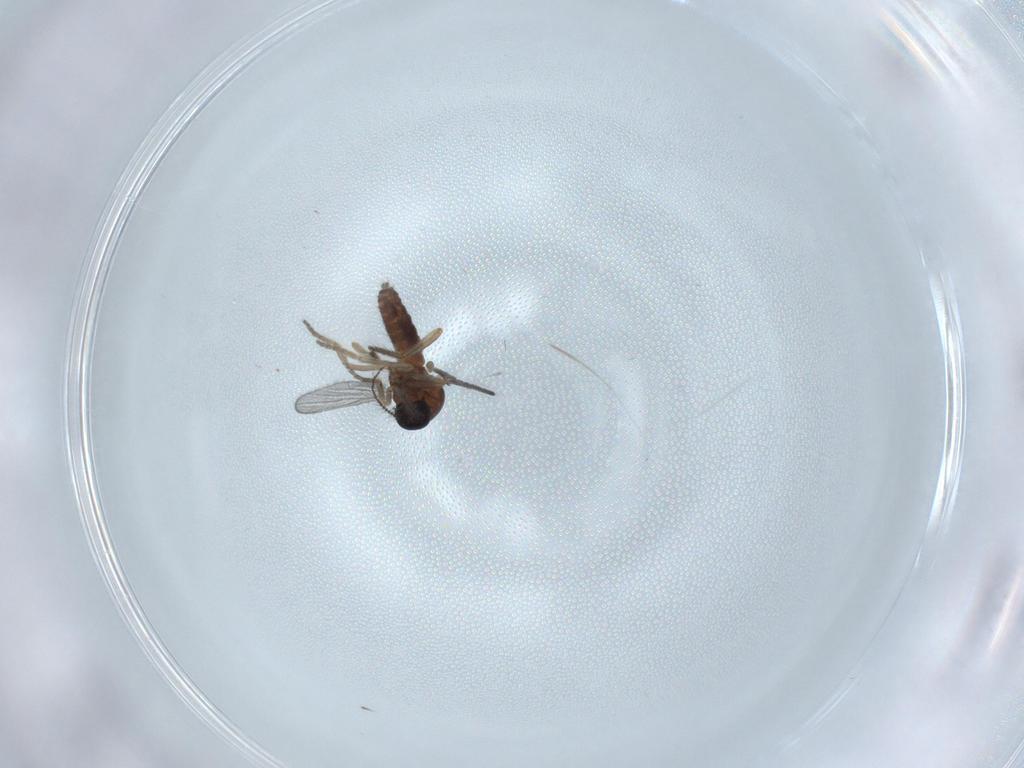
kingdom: Animalia
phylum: Arthropoda
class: Insecta
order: Diptera
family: Ceratopogonidae
